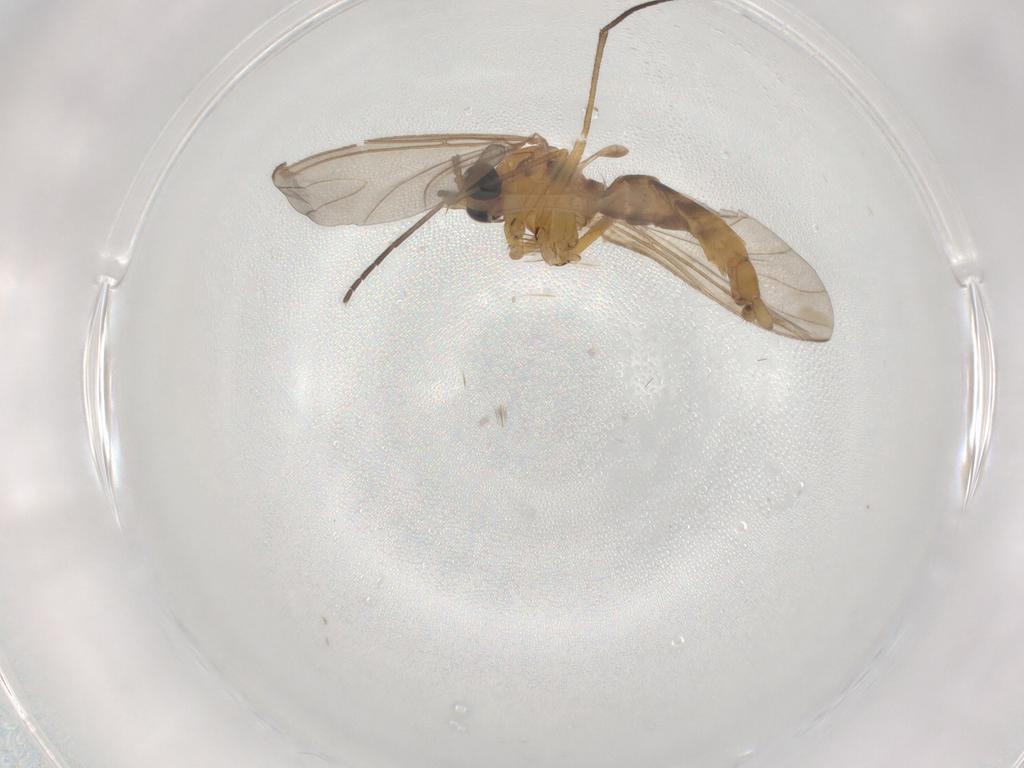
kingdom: Animalia
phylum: Arthropoda
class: Insecta
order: Diptera
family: Sciaridae
